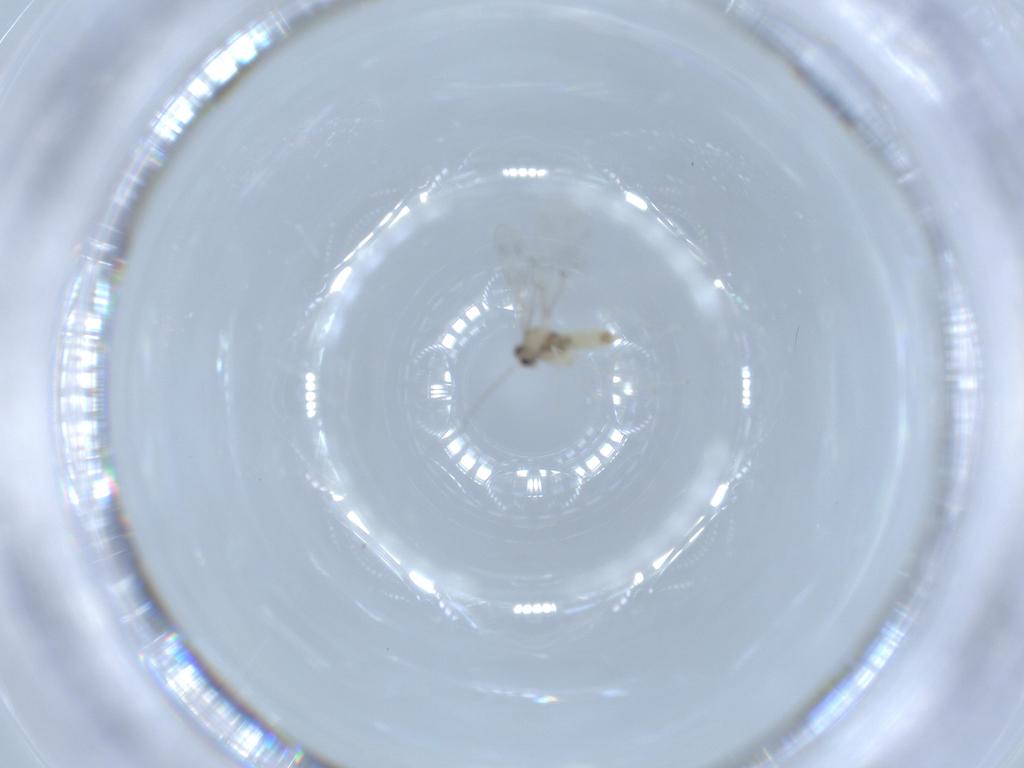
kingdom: Animalia
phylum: Arthropoda
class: Insecta
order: Diptera
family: Cecidomyiidae
